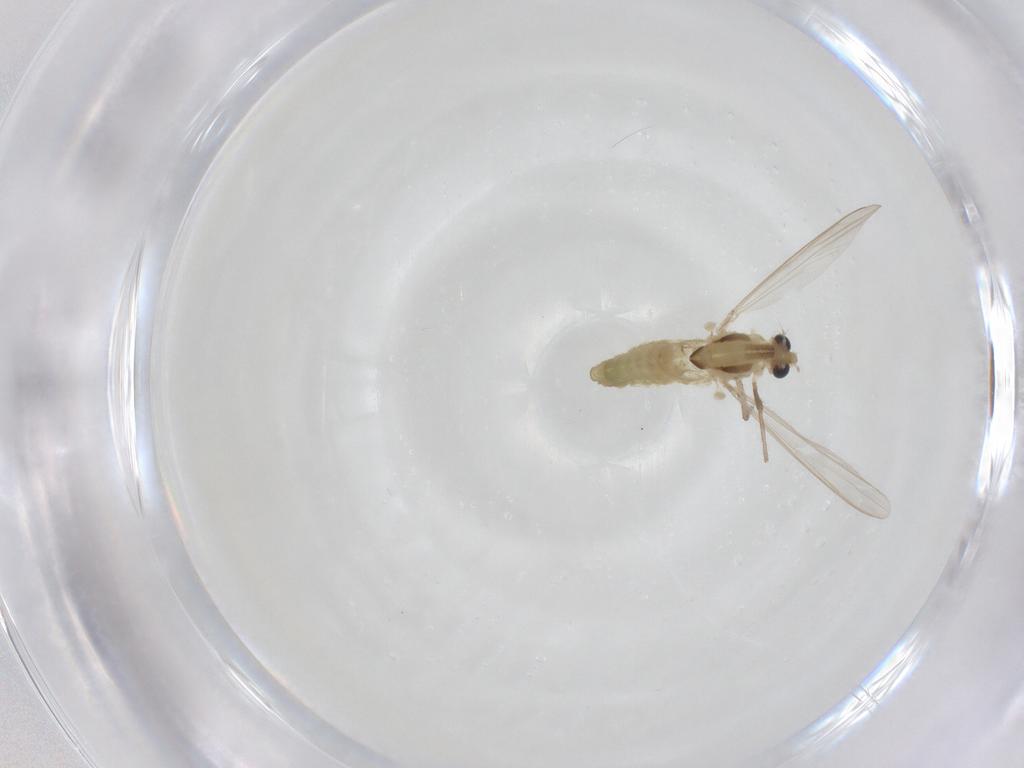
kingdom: Animalia
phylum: Arthropoda
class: Insecta
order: Diptera
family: Chironomidae
